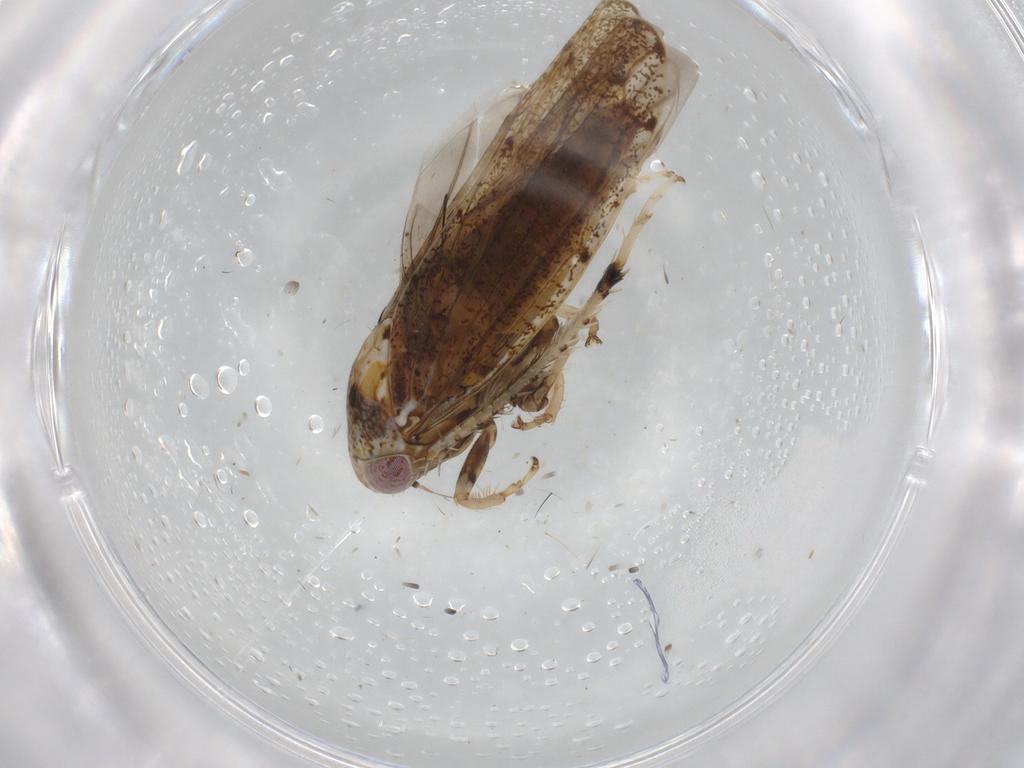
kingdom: Animalia
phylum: Arthropoda
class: Insecta
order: Hemiptera
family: Cicadellidae
